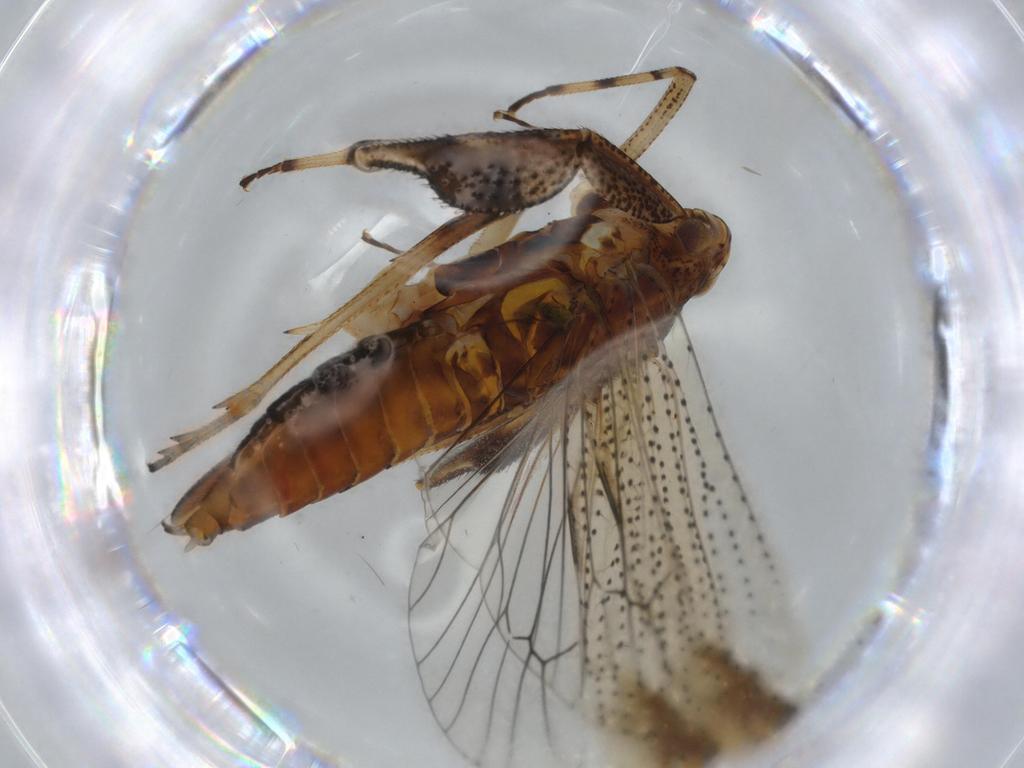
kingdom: Animalia
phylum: Arthropoda
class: Insecta
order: Hemiptera
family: Delphacidae
